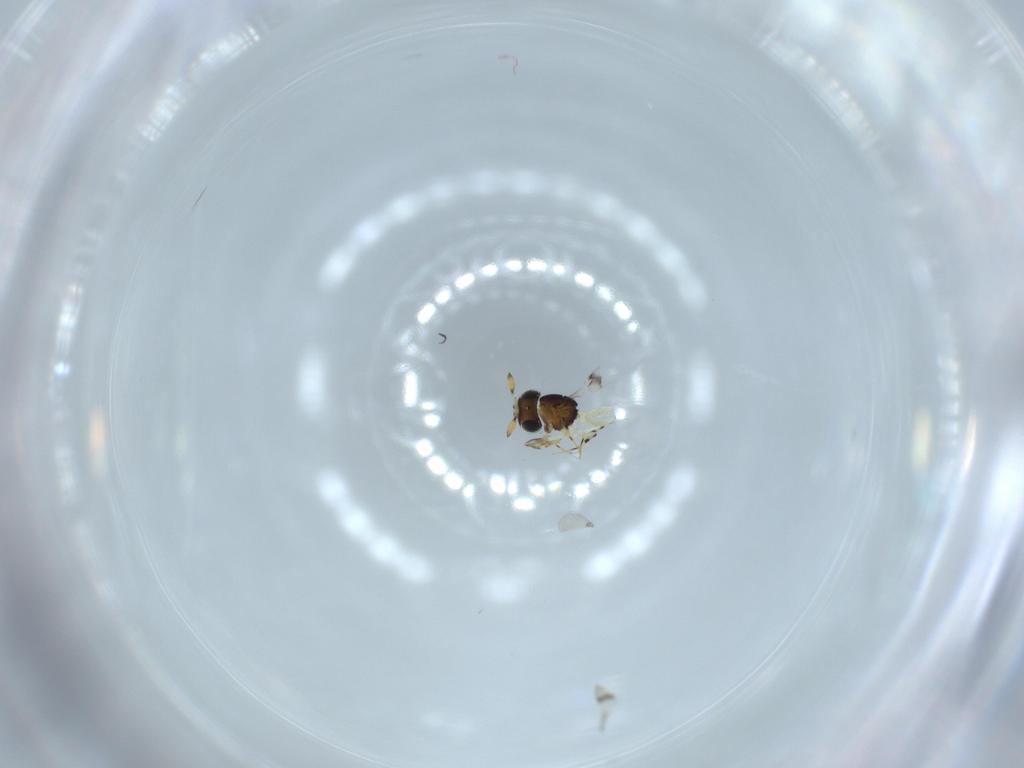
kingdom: Animalia
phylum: Arthropoda
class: Insecta
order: Hymenoptera
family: Scelionidae
